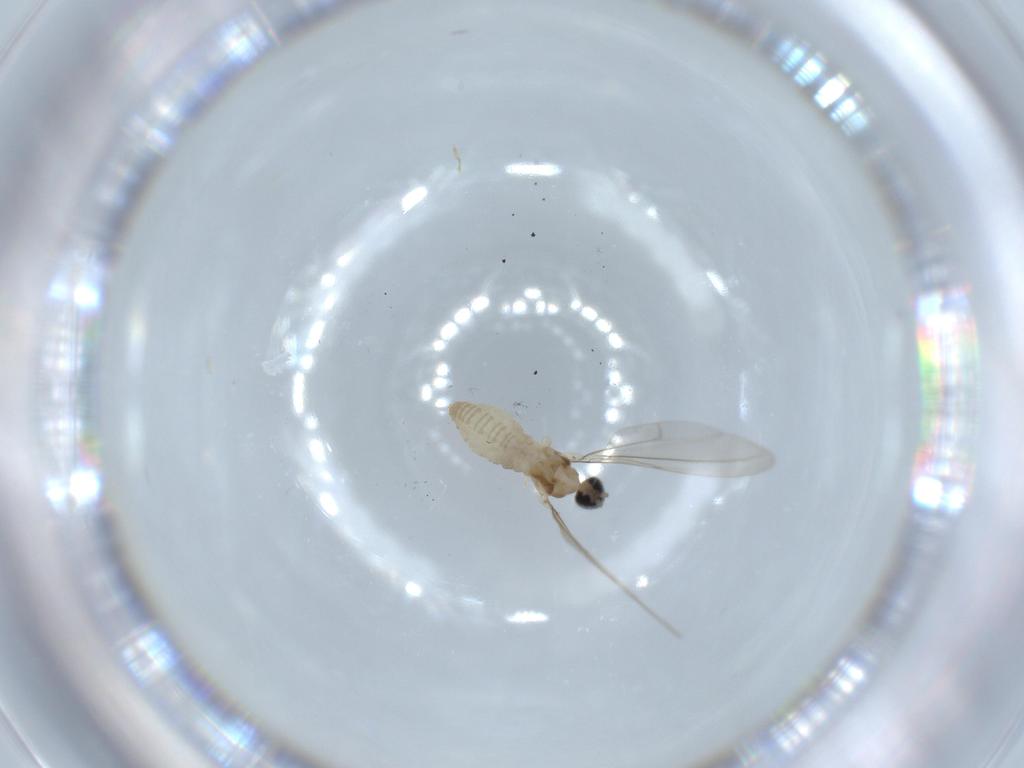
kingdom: Animalia
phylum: Arthropoda
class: Insecta
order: Diptera
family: Cecidomyiidae
